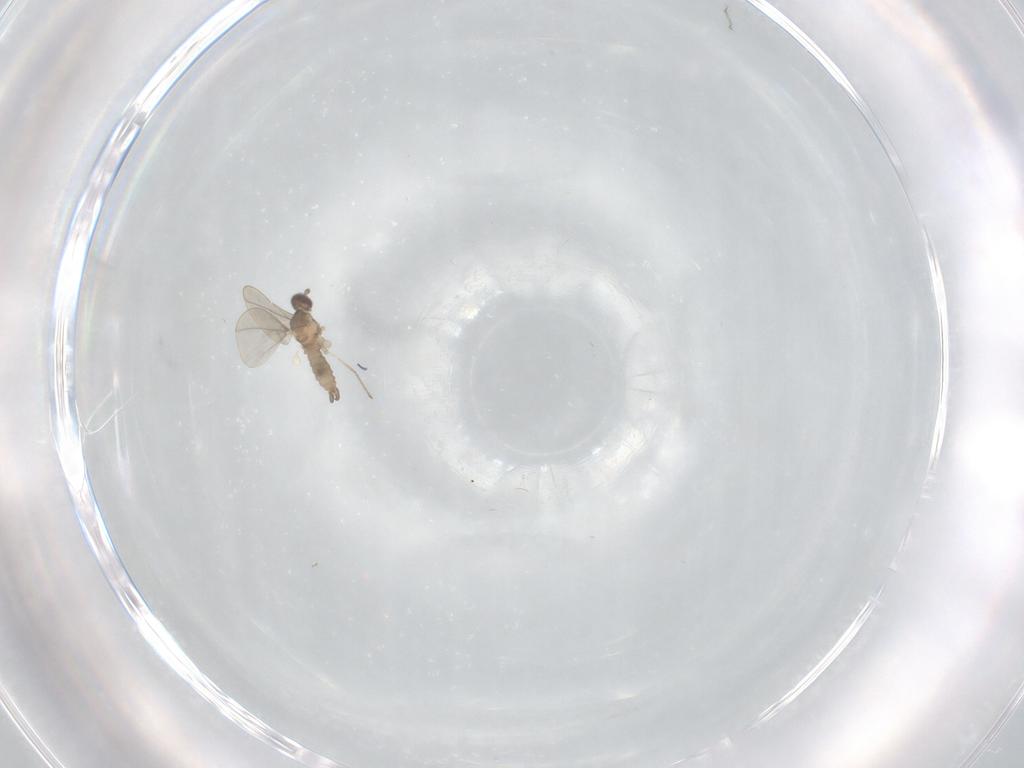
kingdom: Animalia
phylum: Arthropoda
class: Insecta
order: Diptera
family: Cecidomyiidae
